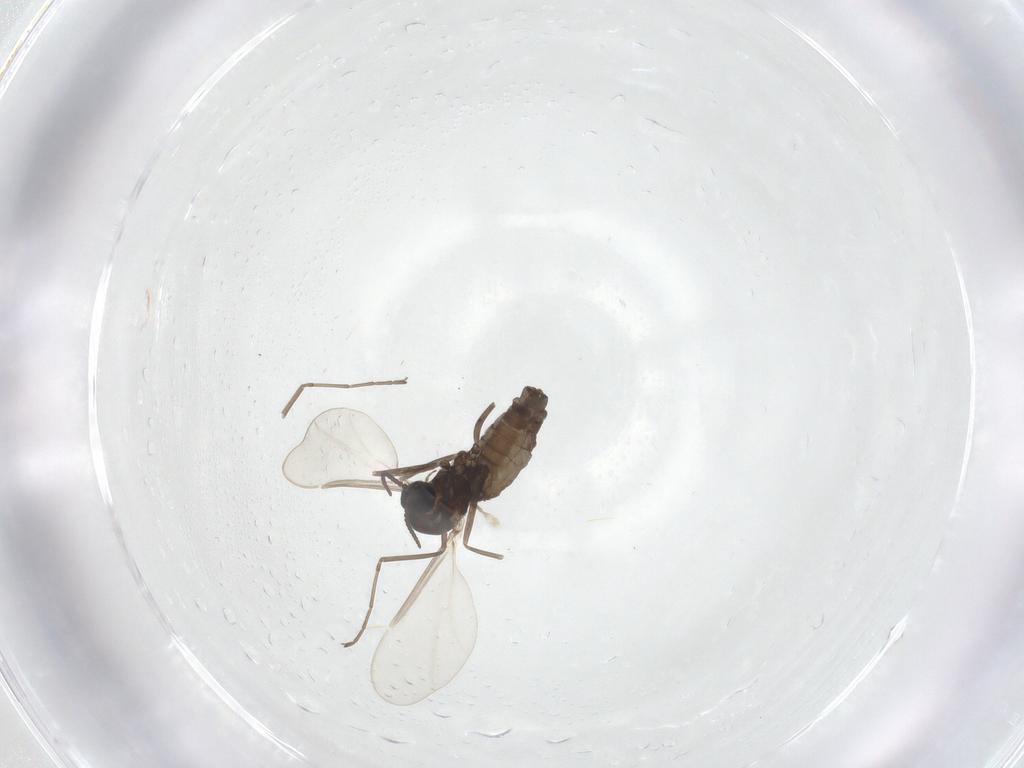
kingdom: Animalia
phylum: Arthropoda
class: Insecta
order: Diptera
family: Cecidomyiidae
